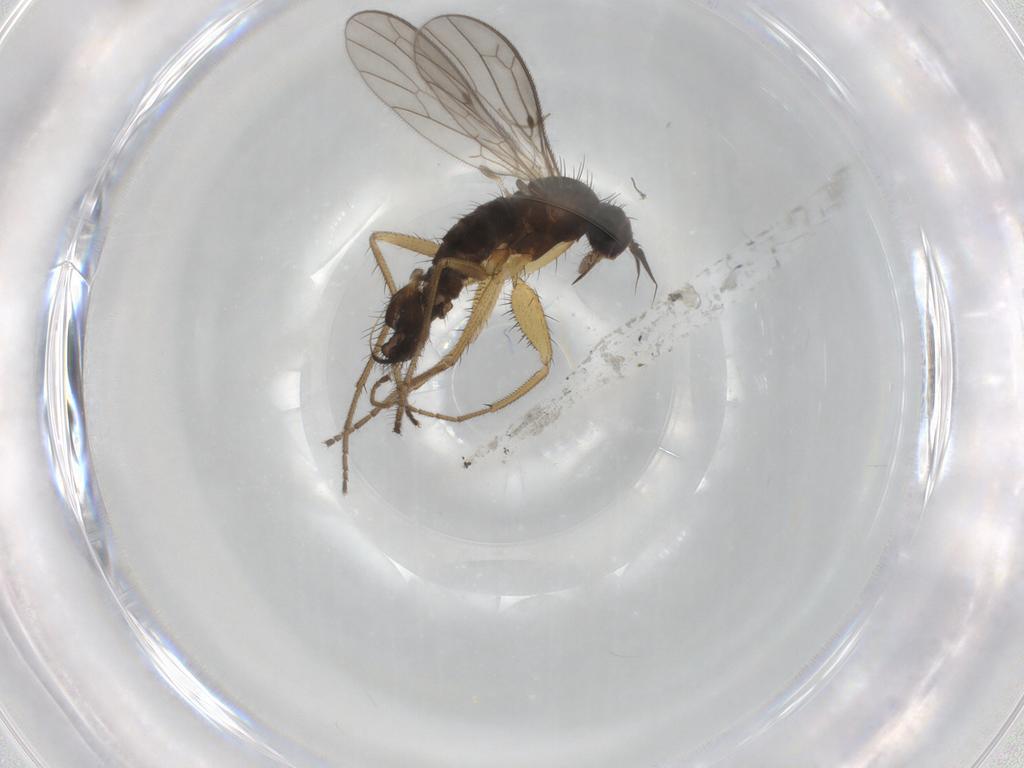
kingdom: Animalia
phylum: Arthropoda
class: Insecta
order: Diptera
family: Chironomidae
